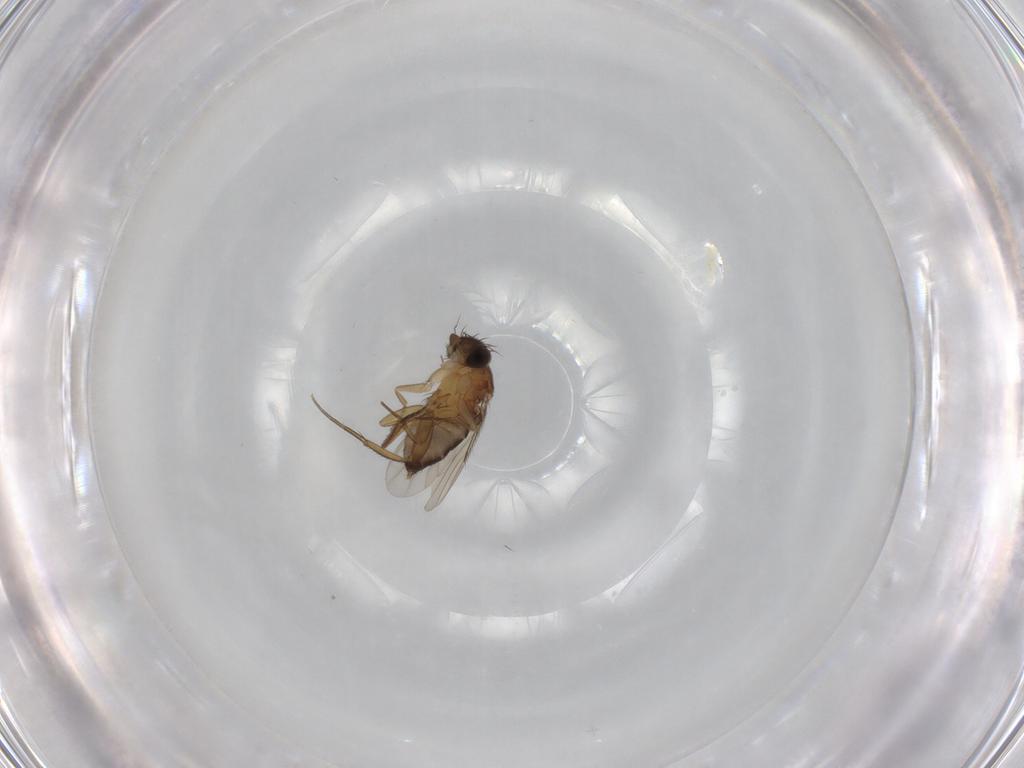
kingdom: Animalia
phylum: Arthropoda
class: Insecta
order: Diptera
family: Phoridae
